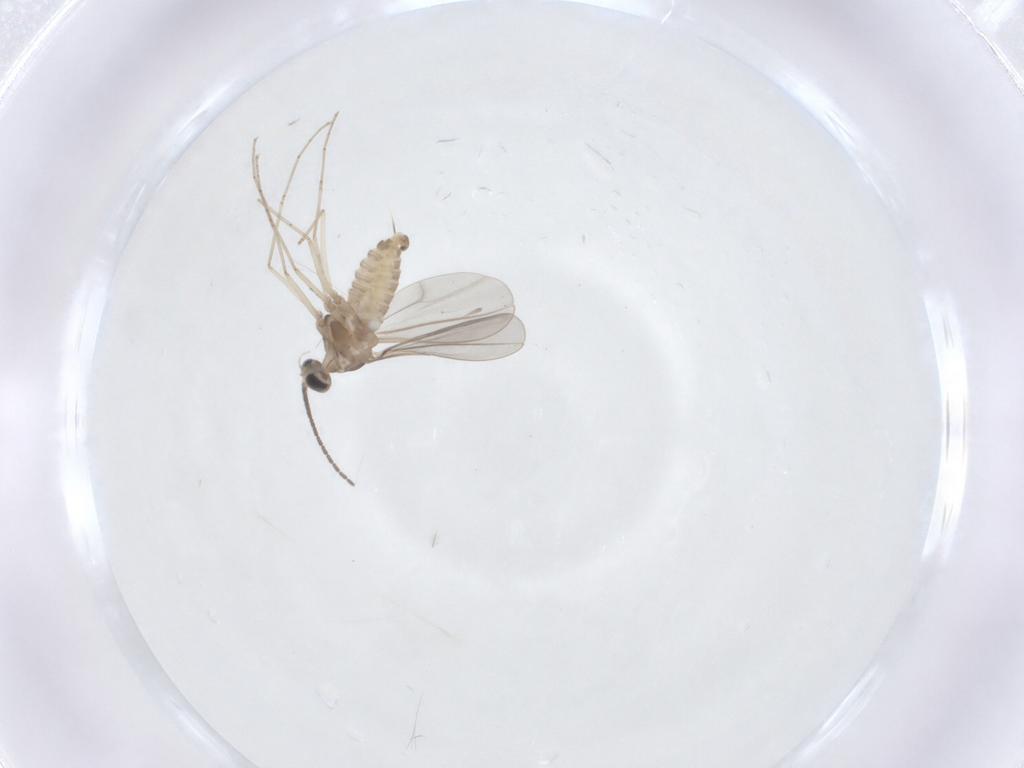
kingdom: Animalia
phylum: Arthropoda
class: Insecta
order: Diptera
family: Cecidomyiidae
